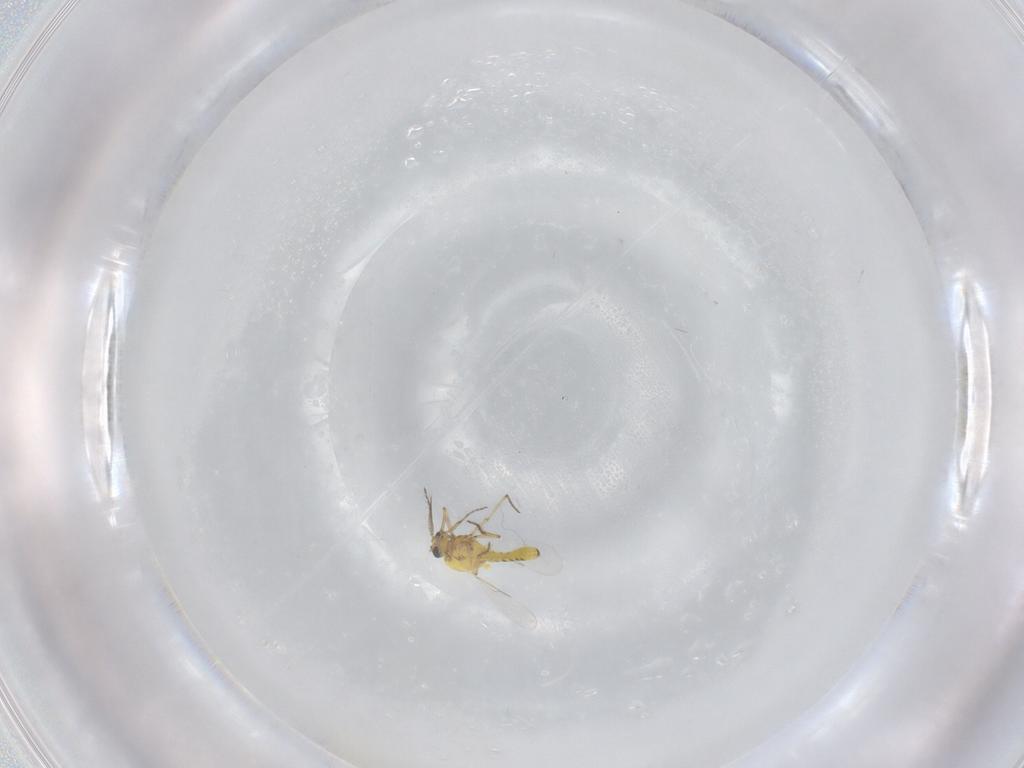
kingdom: Animalia
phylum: Arthropoda
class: Insecta
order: Diptera
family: Ceratopogonidae
